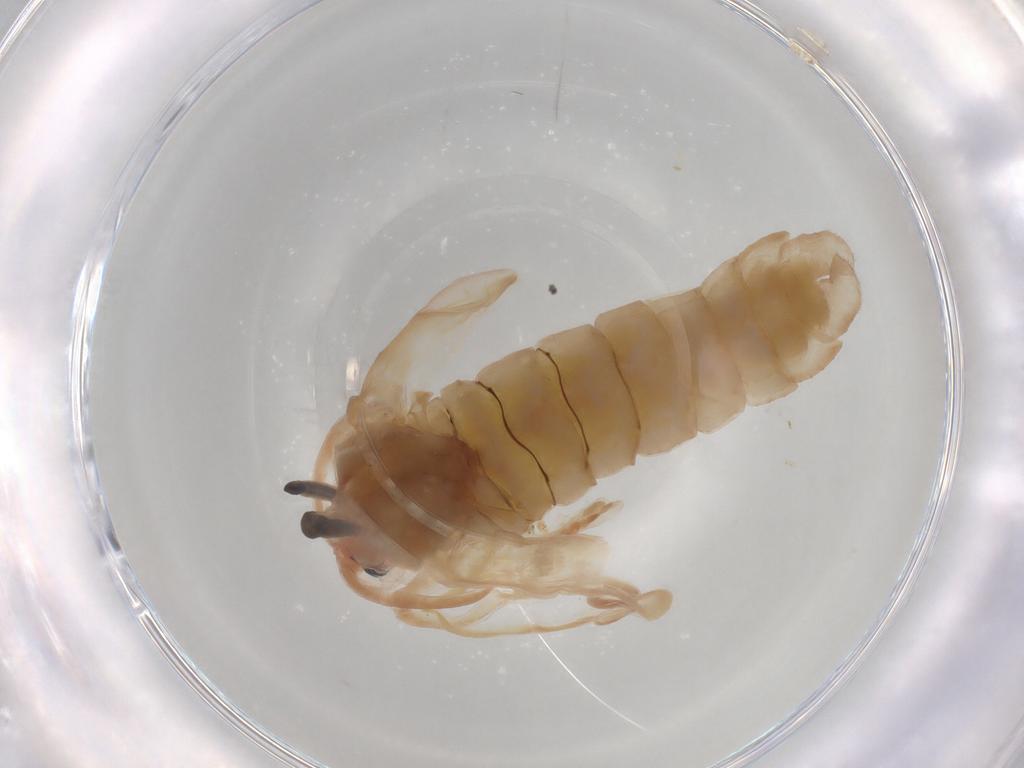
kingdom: Animalia
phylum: Arthropoda
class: Insecta
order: Diptera
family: Chironomidae
